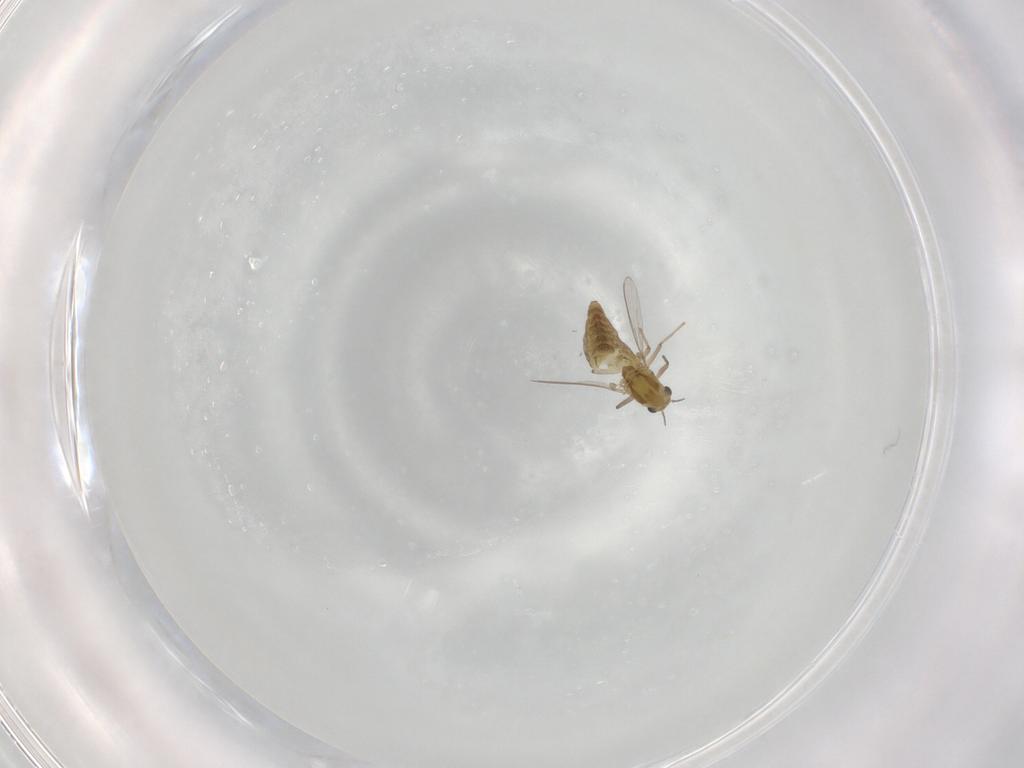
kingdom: Animalia
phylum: Arthropoda
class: Insecta
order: Diptera
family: Chironomidae
